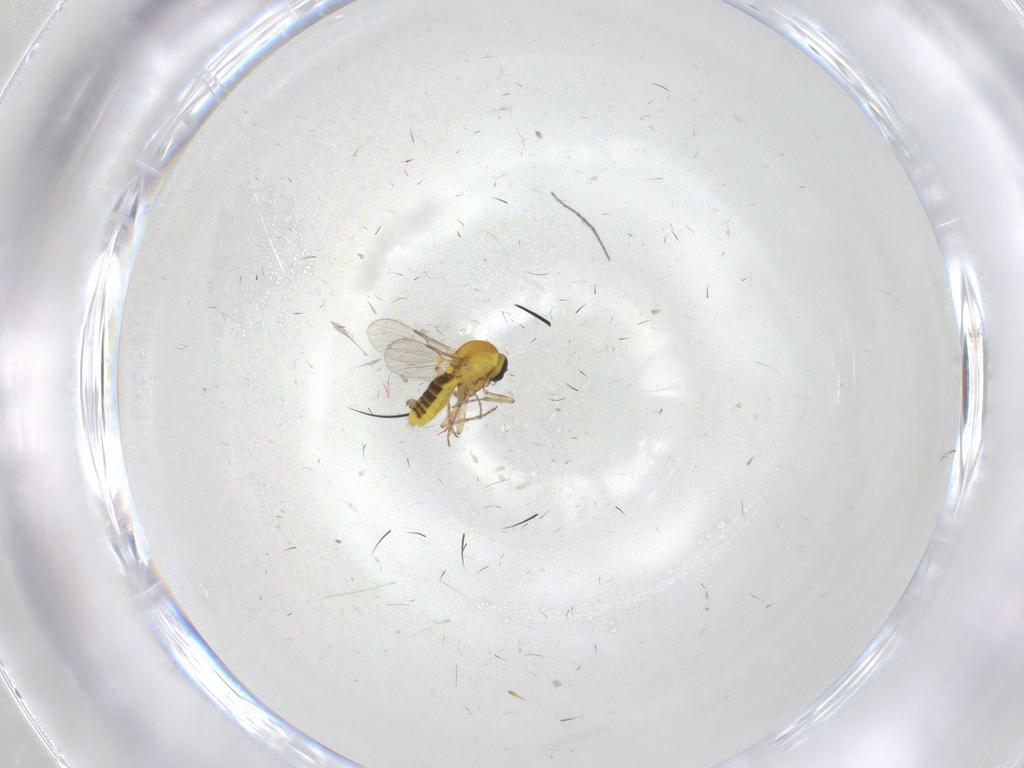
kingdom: Animalia
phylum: Arthropoda
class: Insecta
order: Diptera
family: Chironomidae
